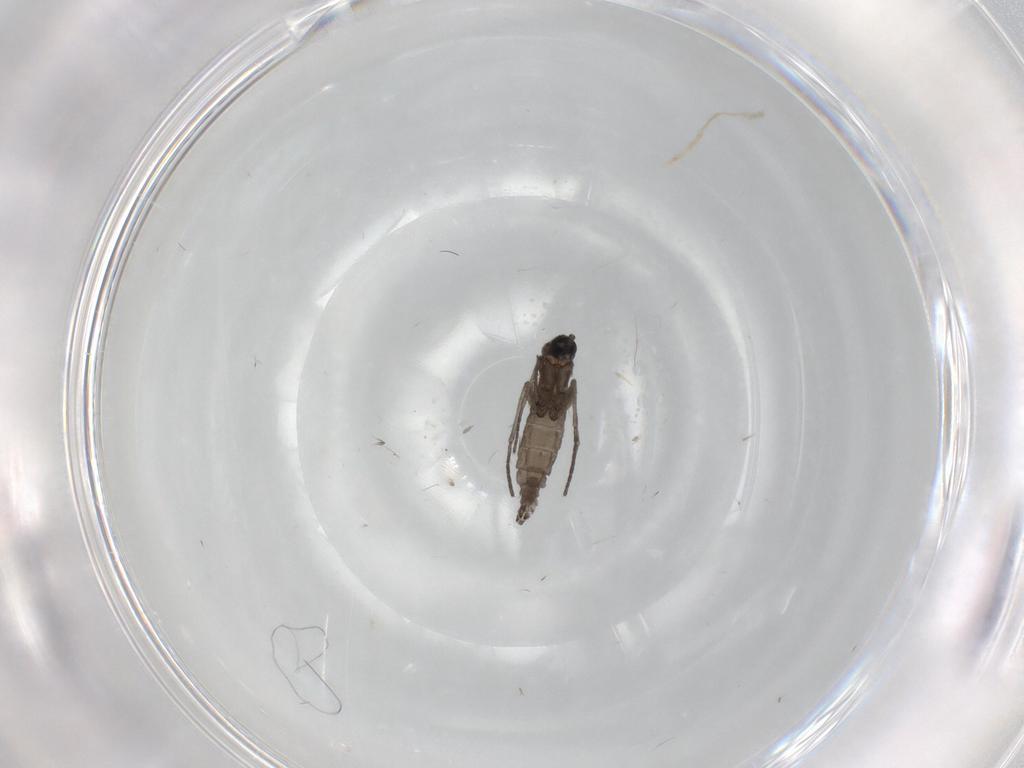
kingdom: Animalia
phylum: Arthropoda
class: Insecta
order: Diptera
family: Sciaridae
